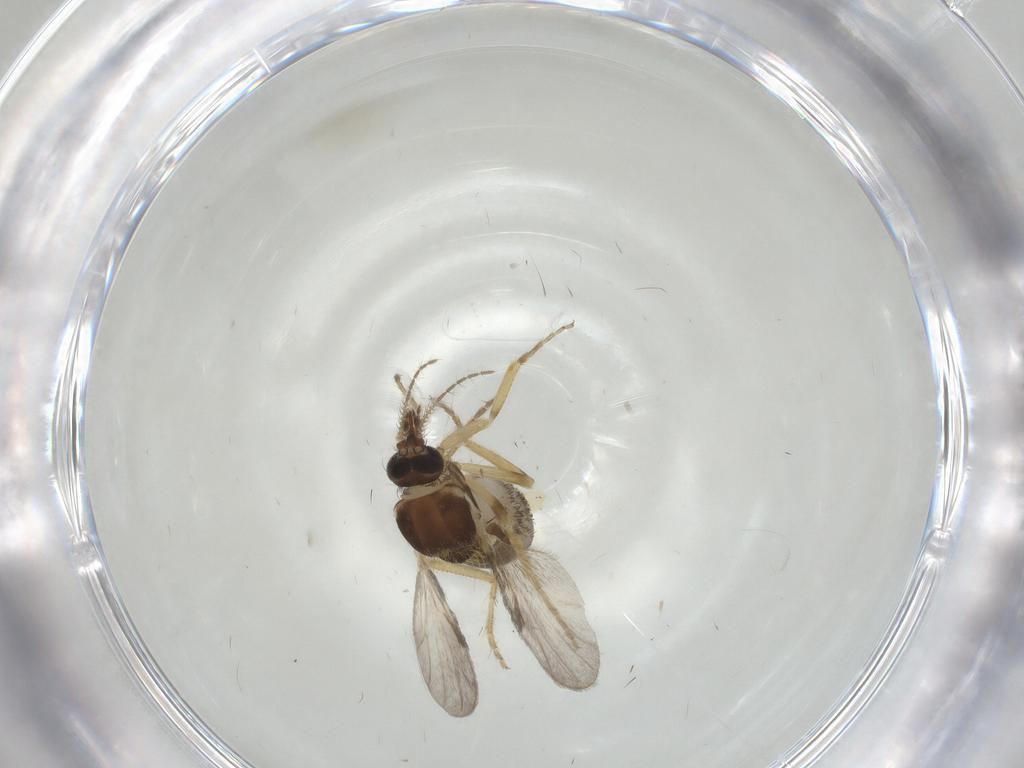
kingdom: Animalia
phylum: Arthropoda
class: Insecta
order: Diptera
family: Ceratopogonidae
